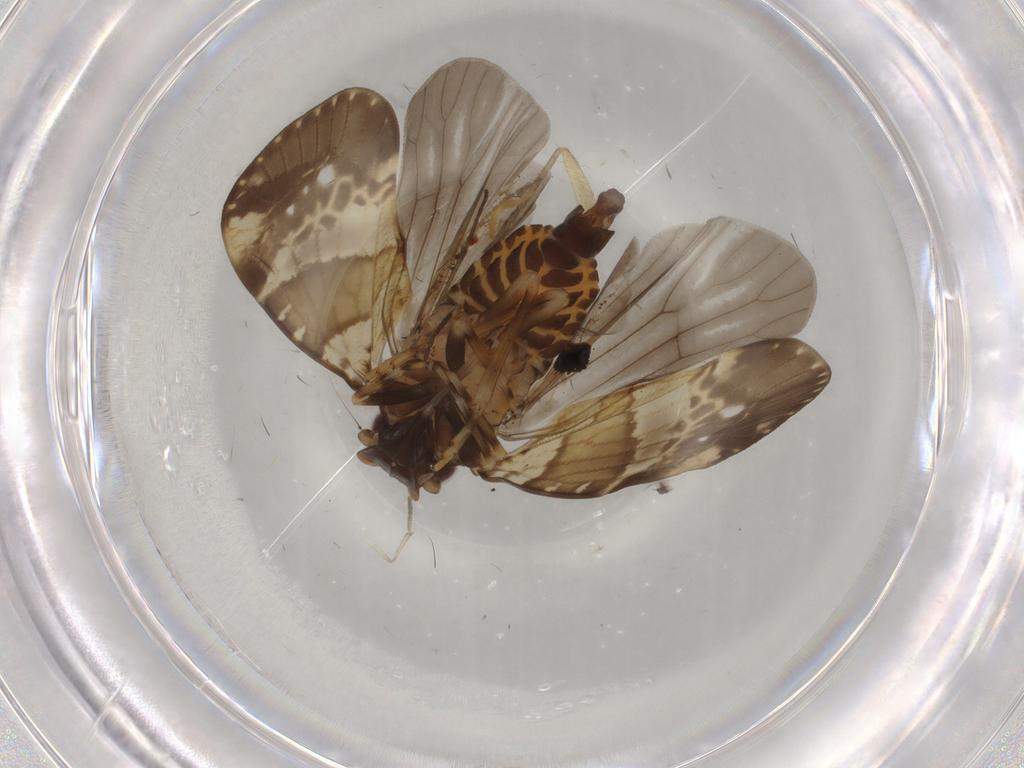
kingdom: Animalia
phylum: Arthropoda
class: Insecta
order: Hemiptera
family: Cixiidae
